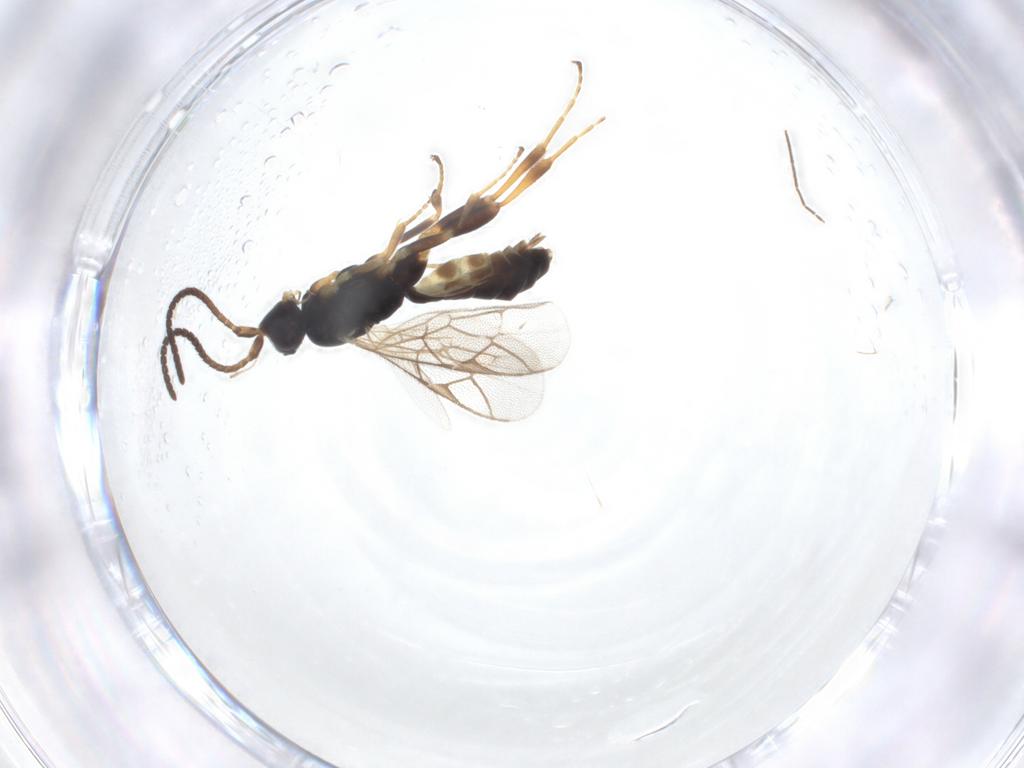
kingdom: Animalia
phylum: Arthropoda
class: Insecta
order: Hymenoptera
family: Ichneumonidae
